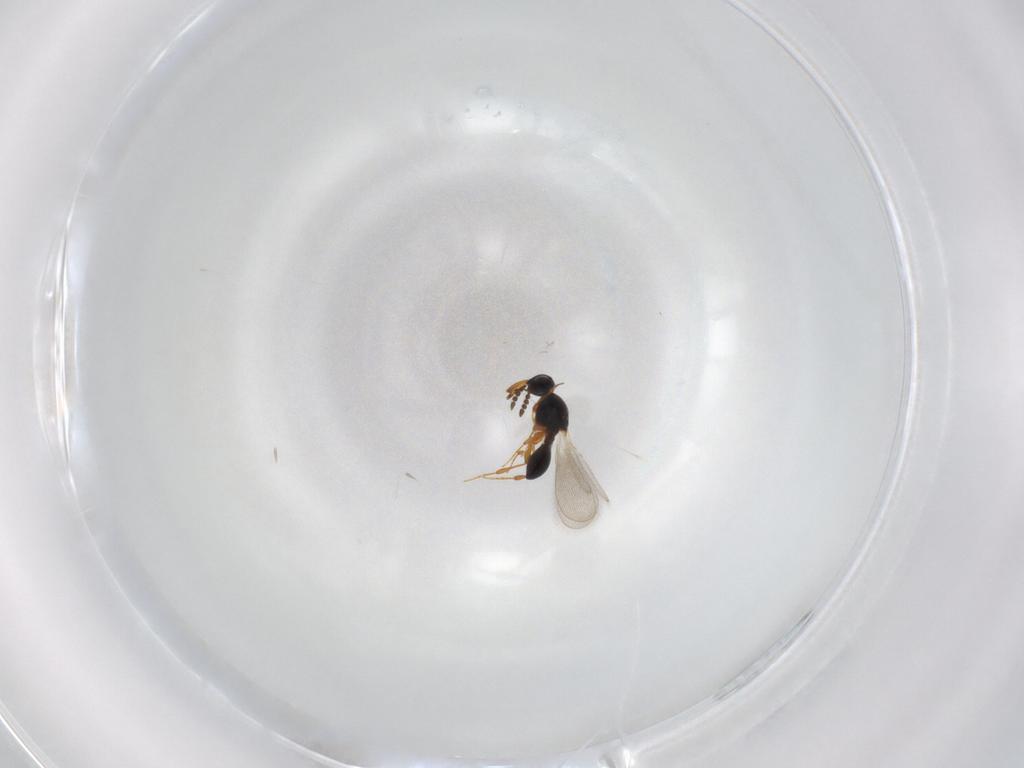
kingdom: Animalia
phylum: Arthropoda
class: Insecta
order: Hymenoptera
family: Platygastridae
